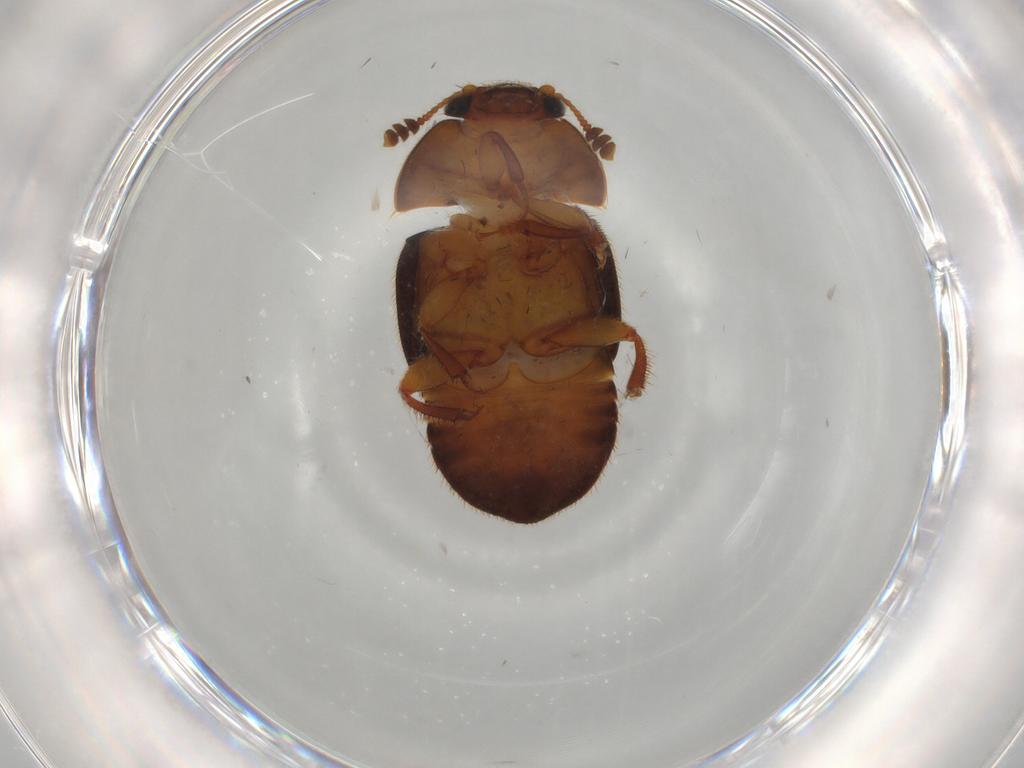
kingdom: Animalia
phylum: Arthropoda
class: Insecta
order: Coleoptera
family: Nitidulidae
